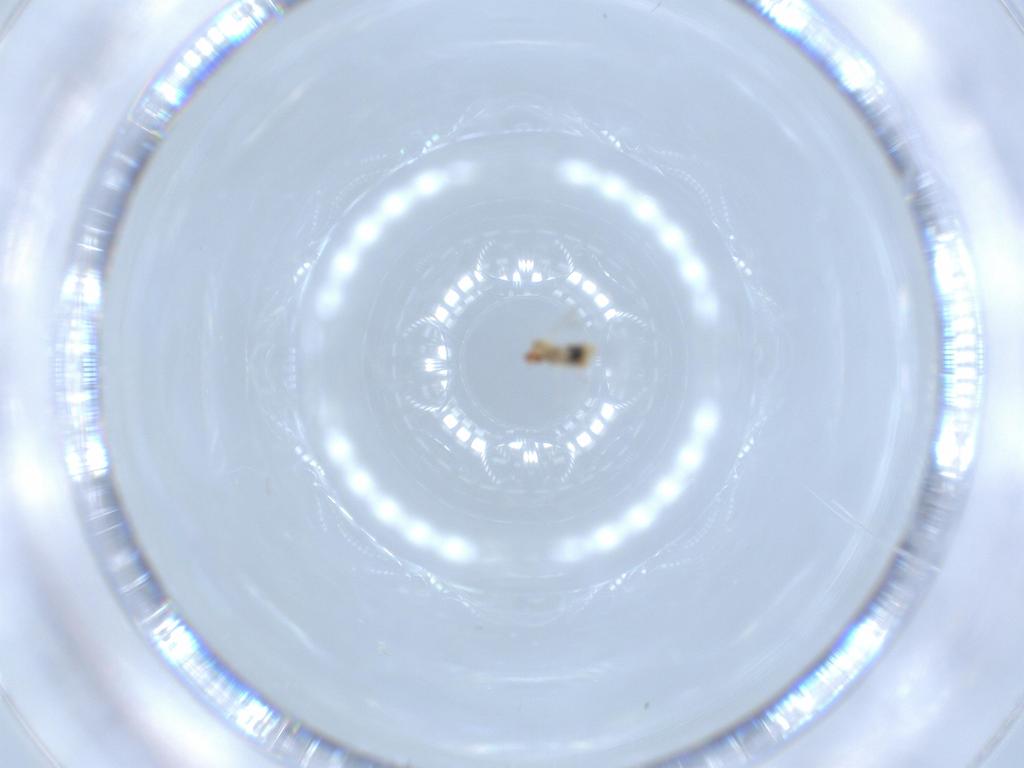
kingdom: Animalia
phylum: Arthropoda
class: Insecta
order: Diptera
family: Cecidomyiidae
